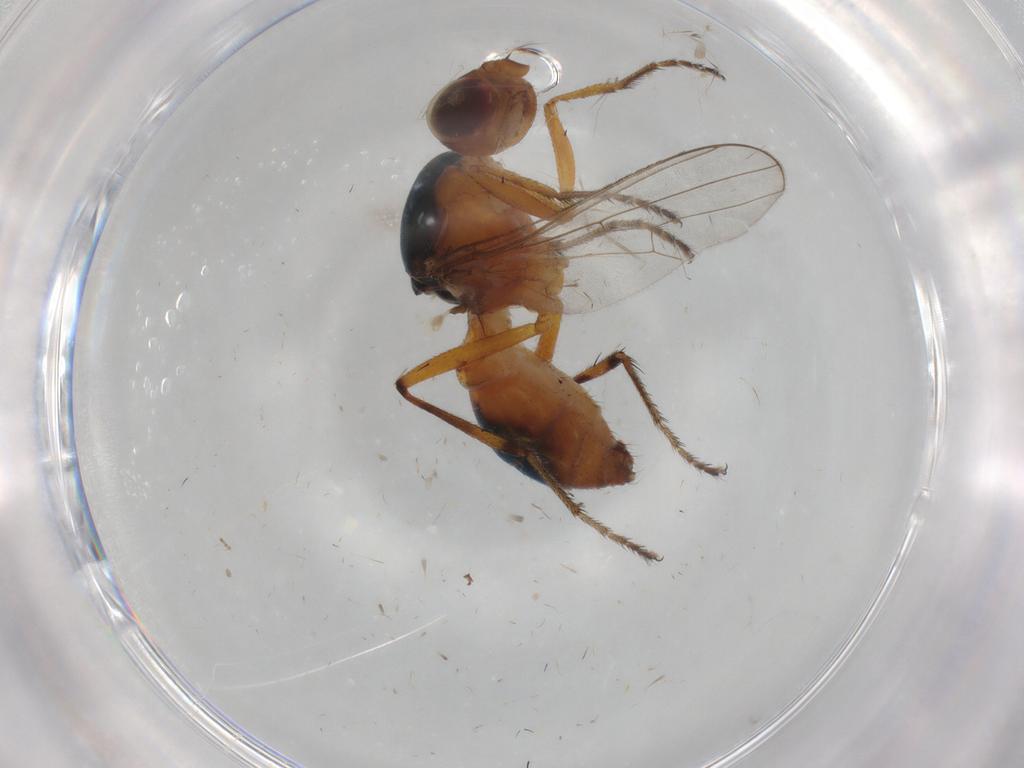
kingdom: Animalia
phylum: Arthropoda
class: Insecta
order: Diptera
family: Sepsidae
